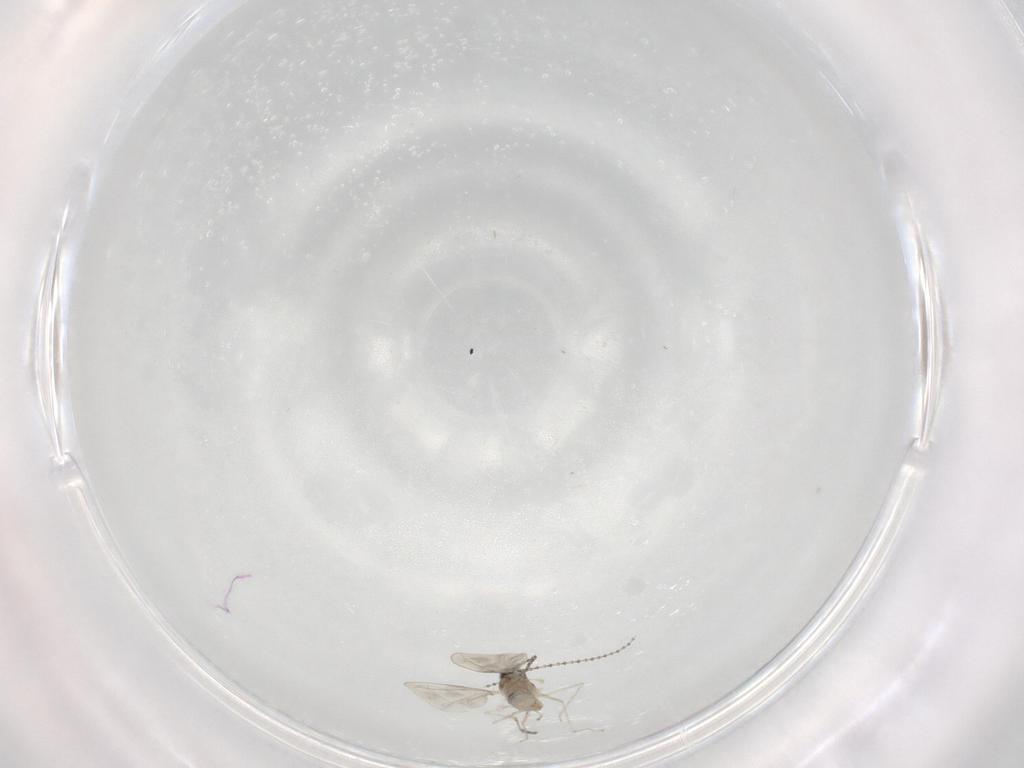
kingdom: Animalia
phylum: Arthropoda
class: Insecta
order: Diptera
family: Cecidomyiidae
